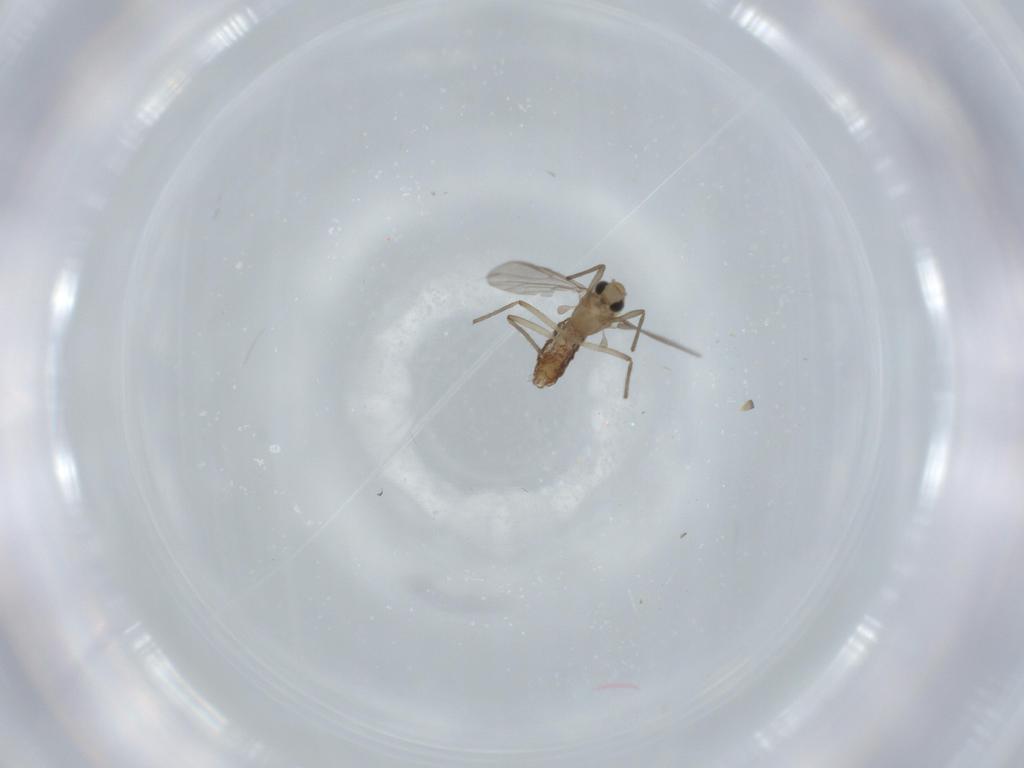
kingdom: Animalia
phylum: Arthropoda
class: Insecta
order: Diptera
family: Chironomidae
